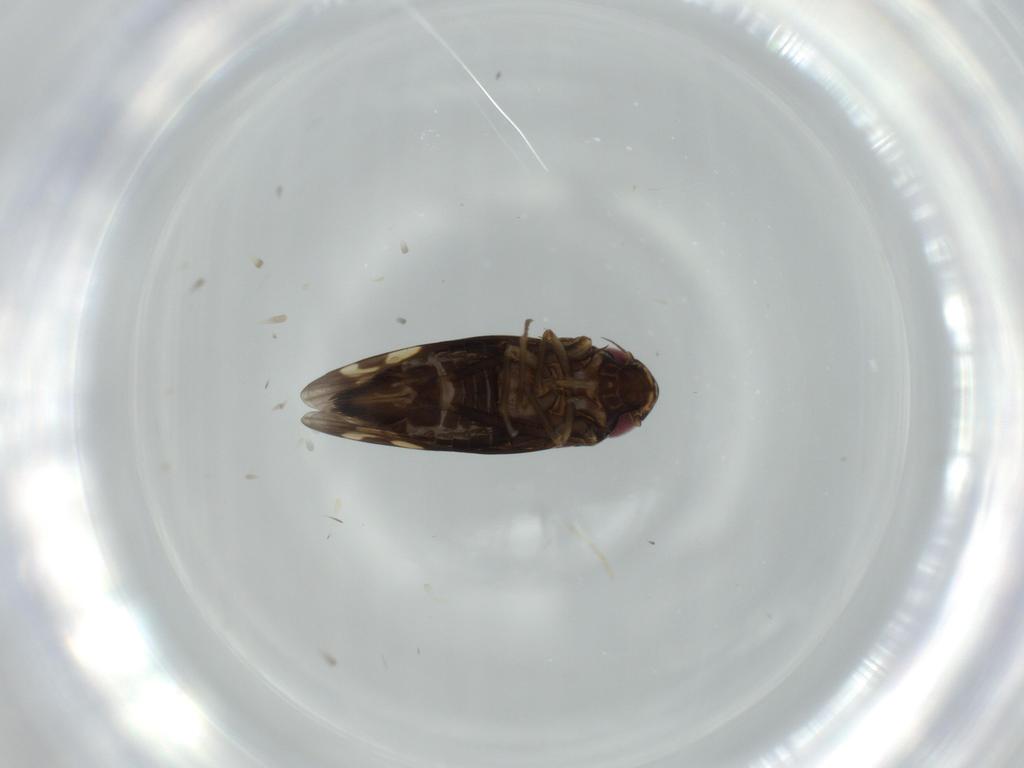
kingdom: Animalia
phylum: Arthropoda
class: Insecta
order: Hemiptera
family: Cicadellidae
